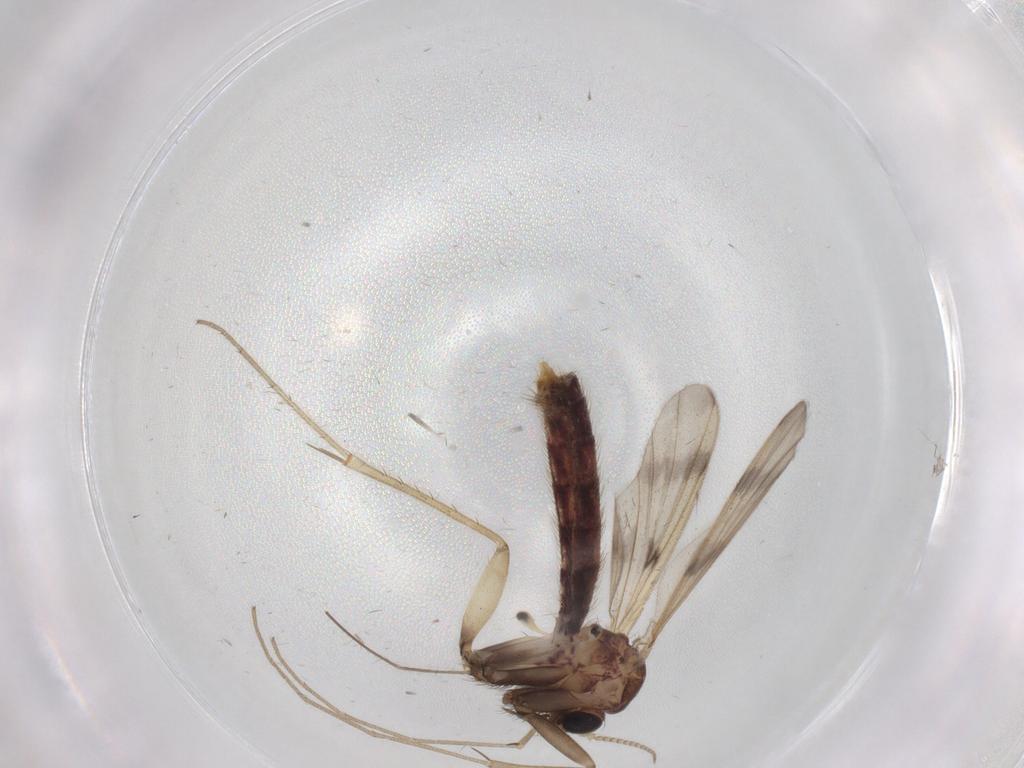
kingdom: Animalia
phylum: Arthropoda
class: Insecta
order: Diptera
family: Mycetophilidae
